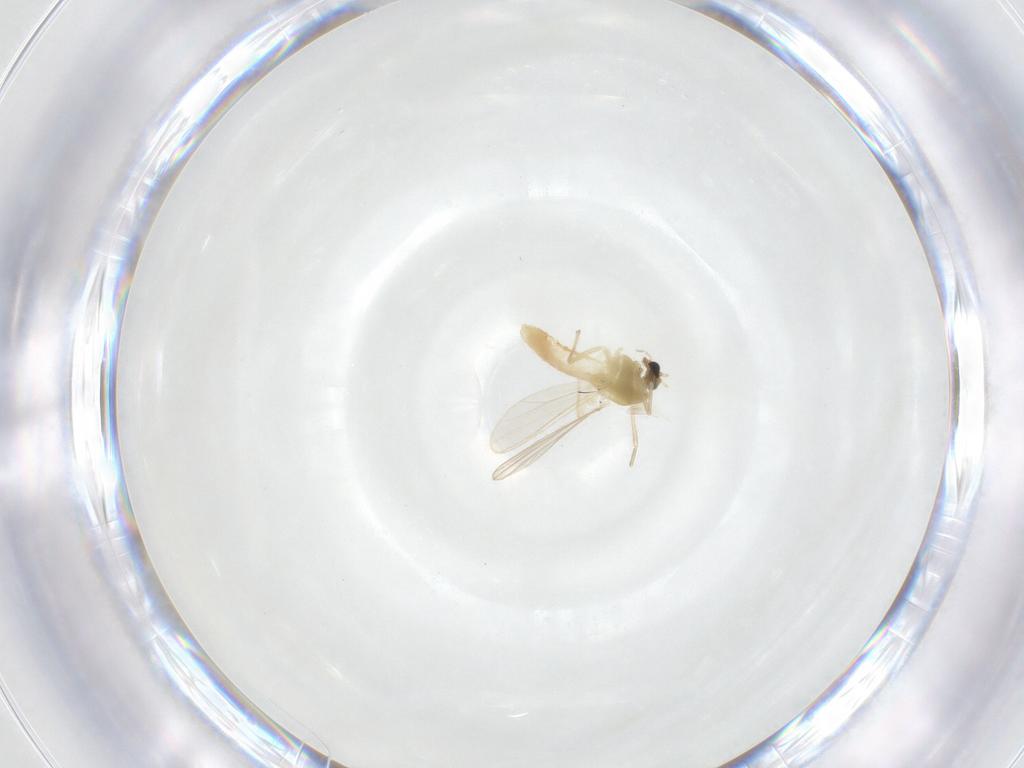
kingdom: Animalia
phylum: Arthropoda
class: Insecta
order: Diptera
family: Chironomidae
